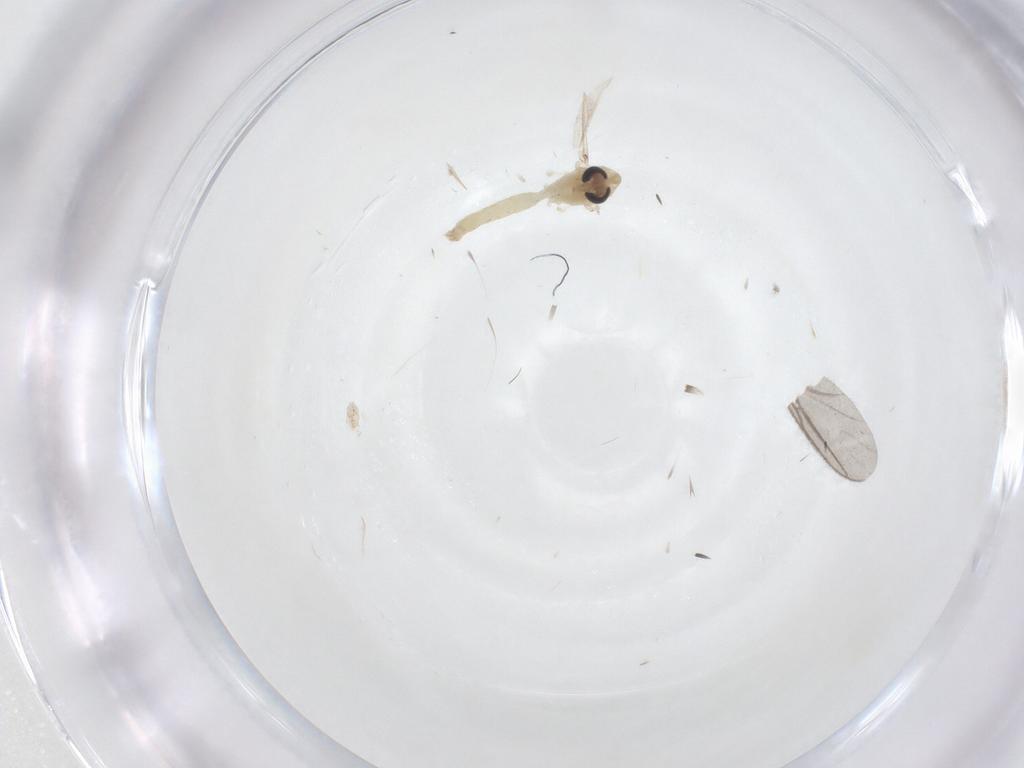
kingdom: Animalia
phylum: Arthropoda
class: Insecta
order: Diptera
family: Chironomidae
